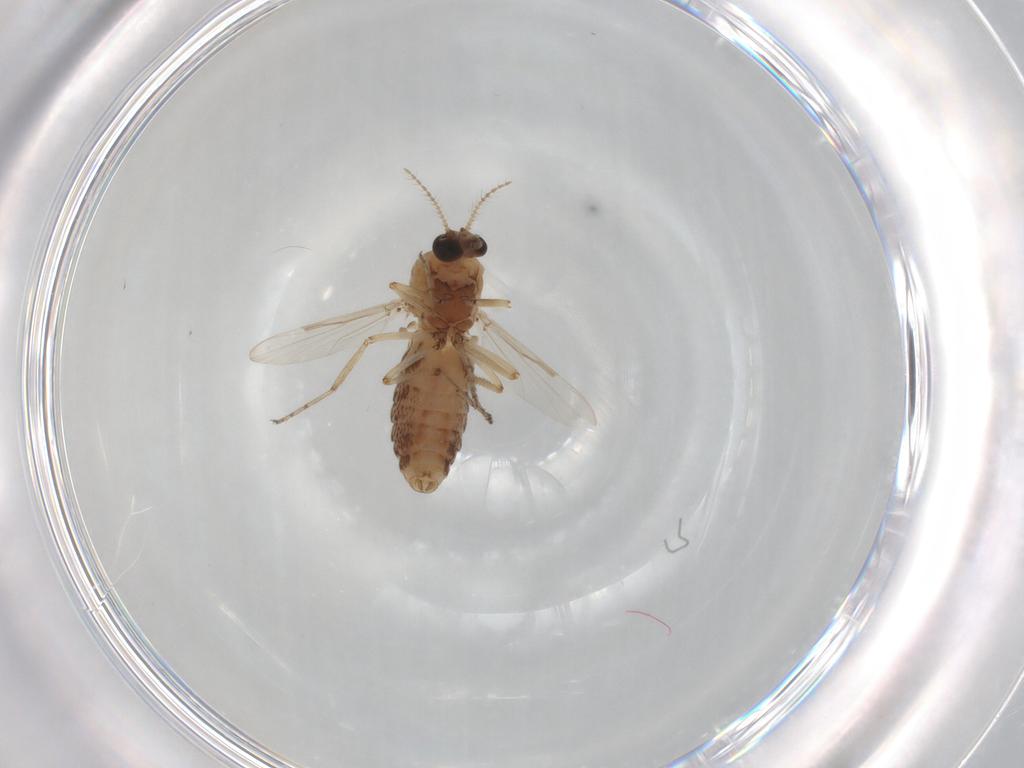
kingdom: Animalia
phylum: Arthropoda
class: Insecta
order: Diptera
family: Ceratopogonidae
